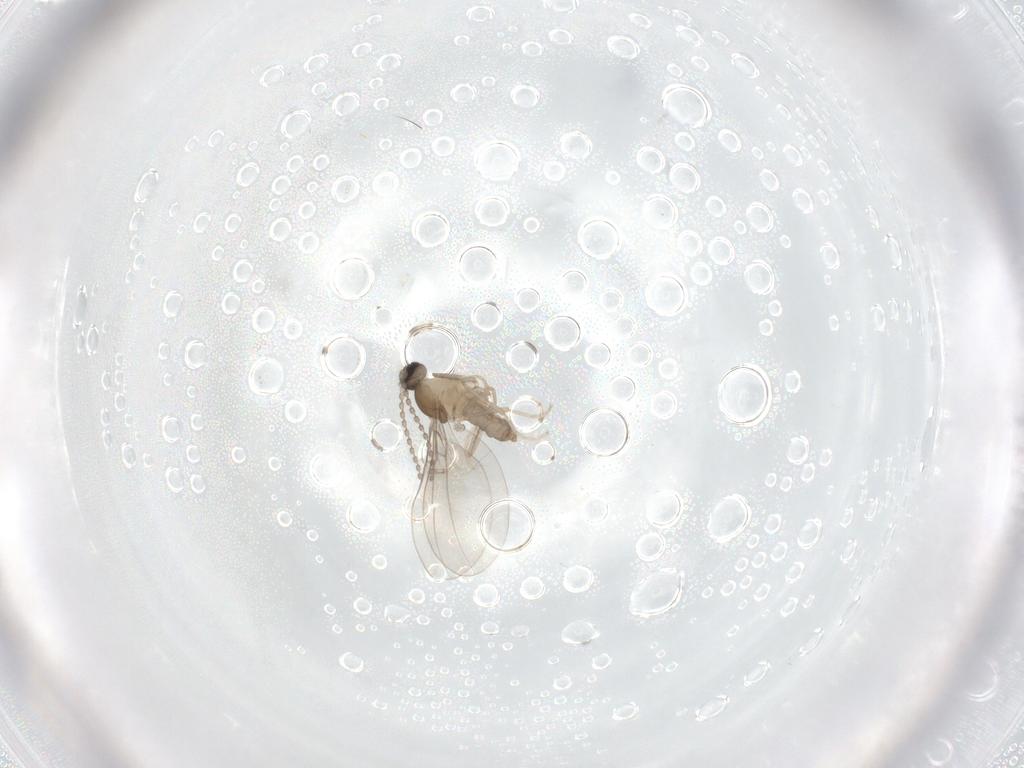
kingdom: Animalia
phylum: Arthropoda
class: Insecta
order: Diptera
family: Cecidomyiidae
